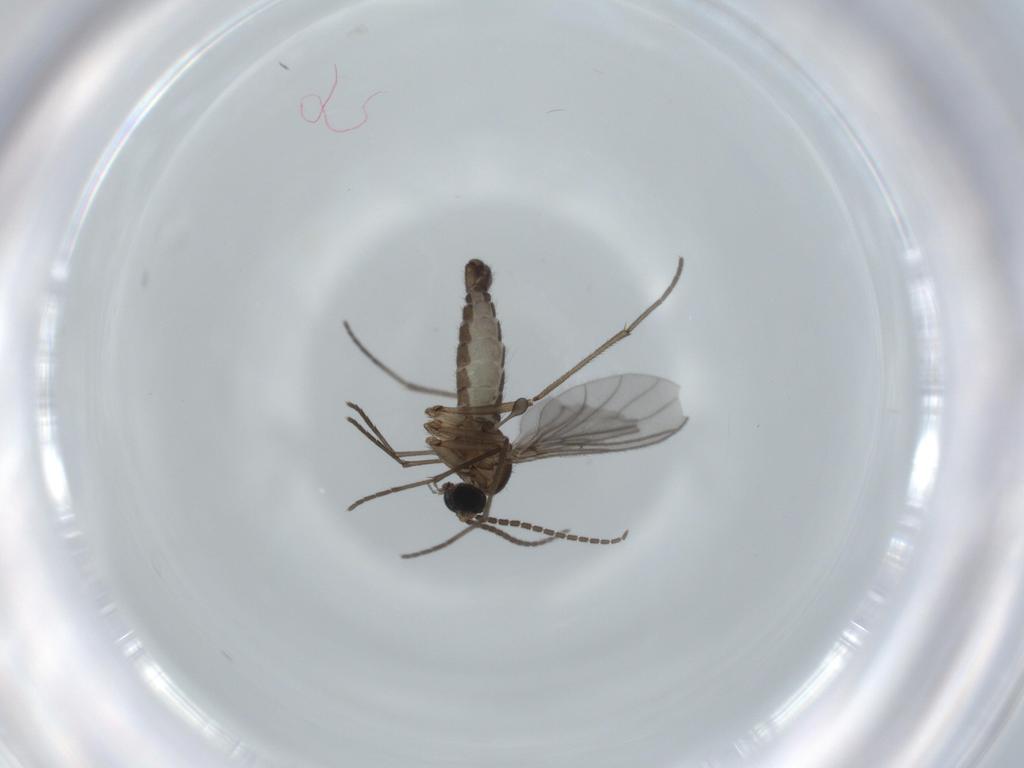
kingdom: Animalia
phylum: Arthropoda
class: Insecta
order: Diptera
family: Sciaridae
